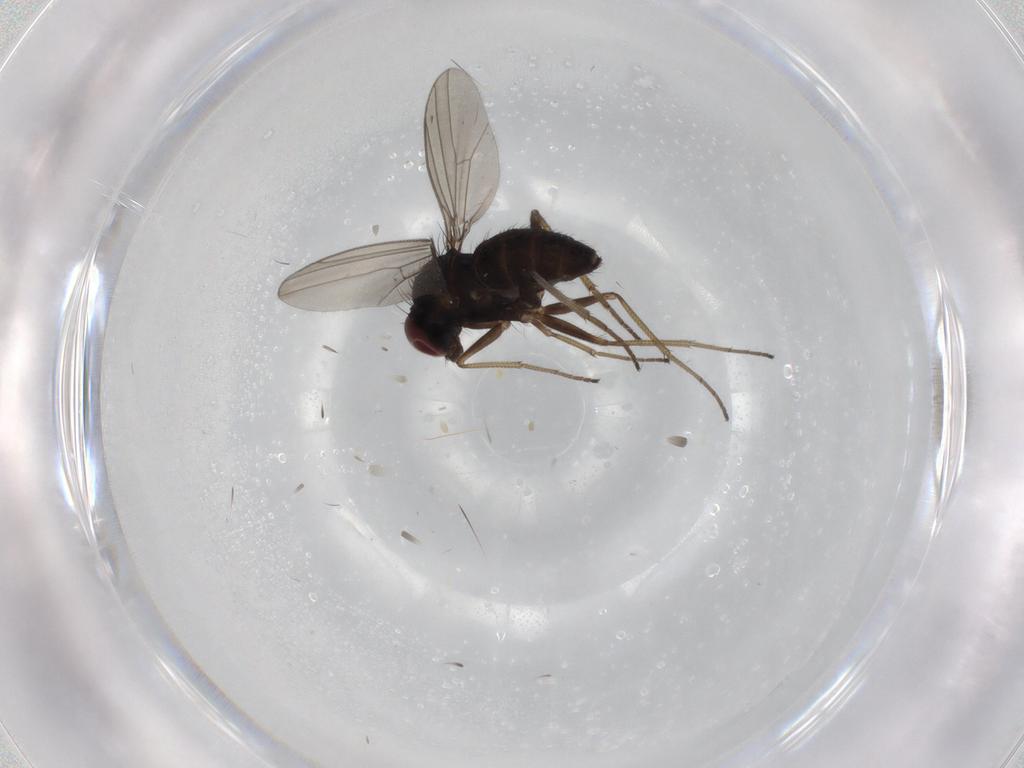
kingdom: Animalia
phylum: Arthropoda
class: Insecta
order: Diptera
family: Dolichopodidae
